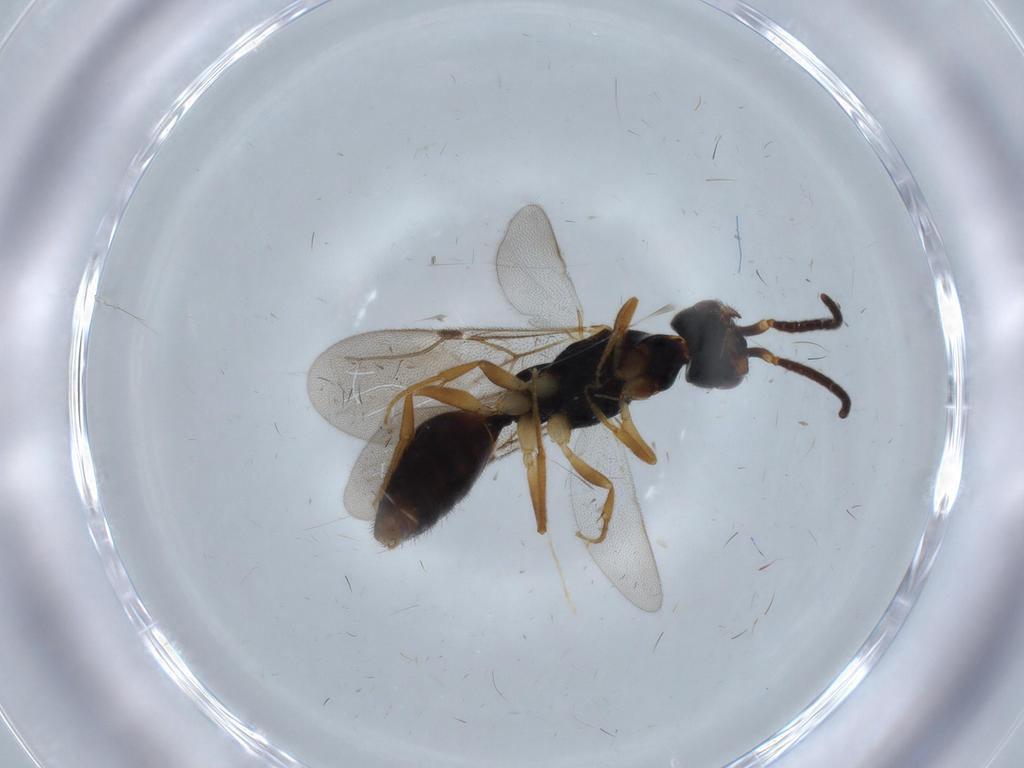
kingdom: Animalia
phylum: Arthropoda
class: Insecta
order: Hymenoptera
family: Bethylidae
